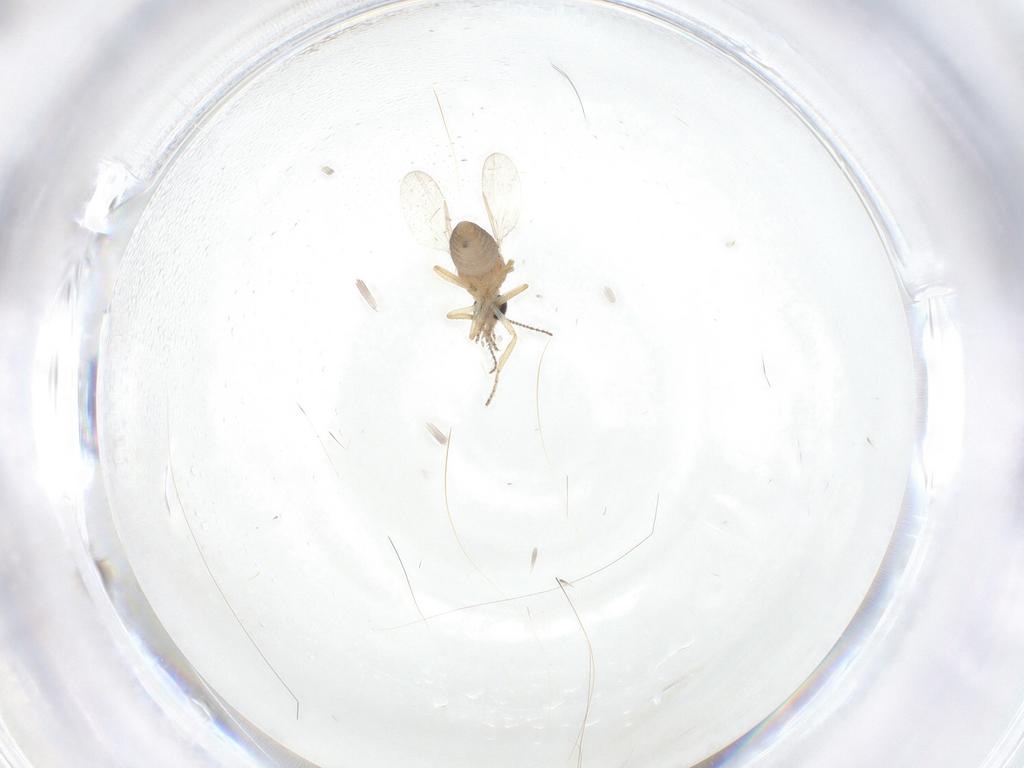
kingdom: Animalia
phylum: Arthropoda
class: Insecta
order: Diptera
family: Ceratopogonidae
